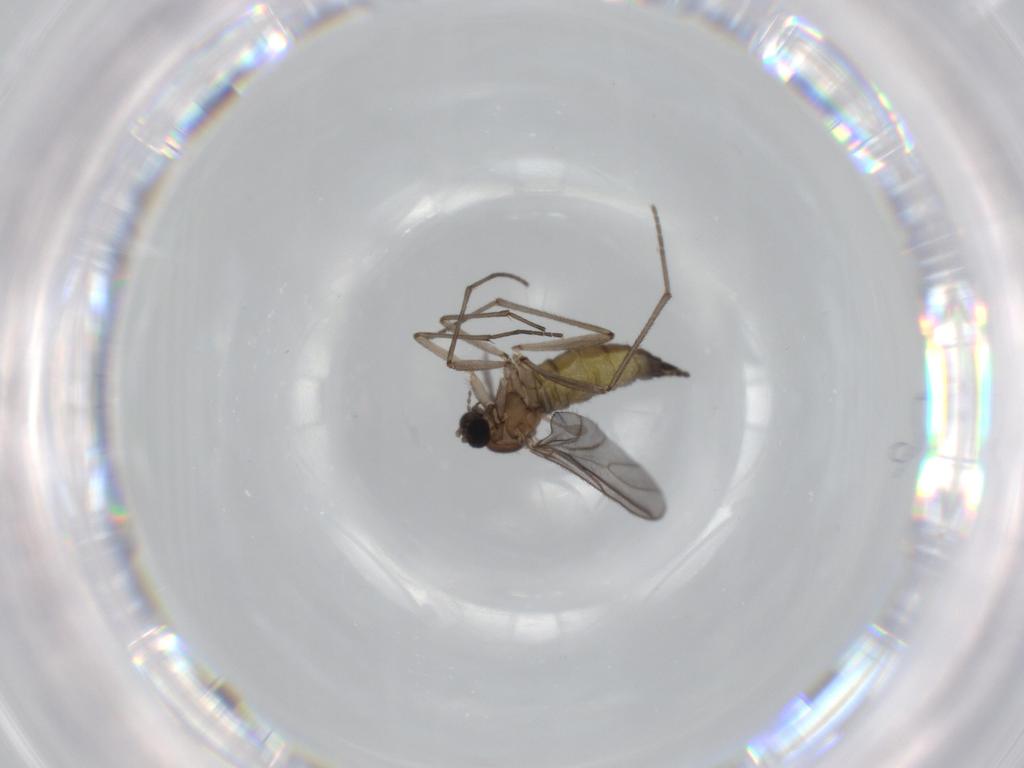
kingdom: Animalia
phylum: Arthropoda
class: Insecta
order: Diptera
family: Sciaridae
